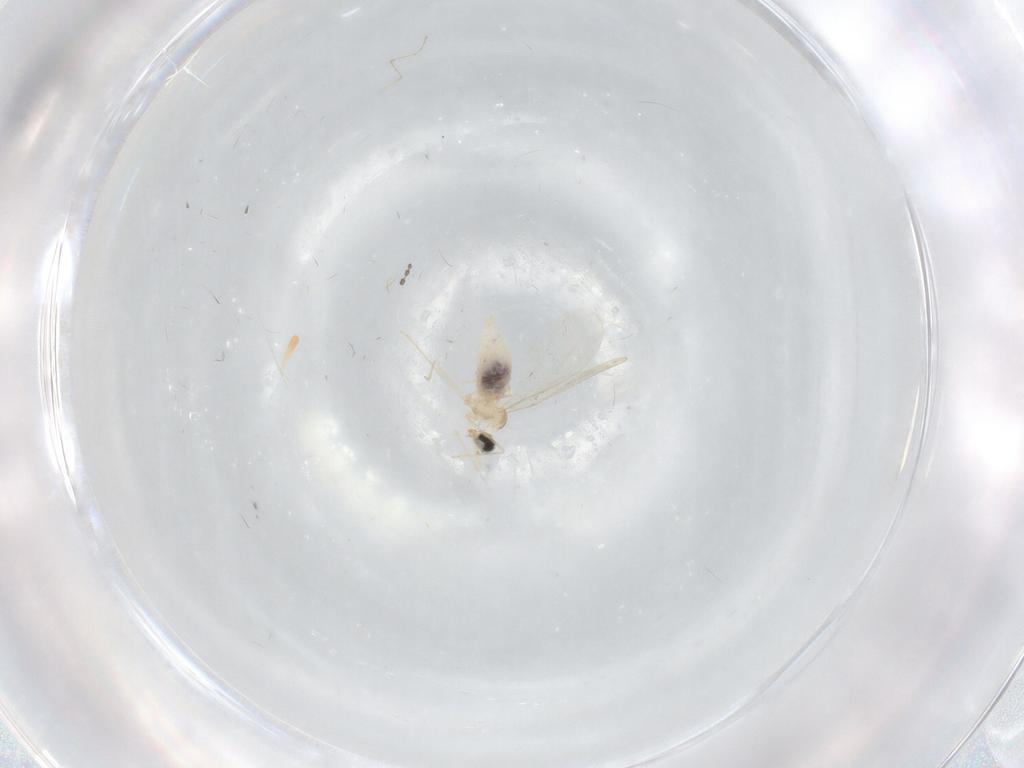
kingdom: Animalia
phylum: Arthropoda
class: Insecta
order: Diptera
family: Cecidomyiidae
